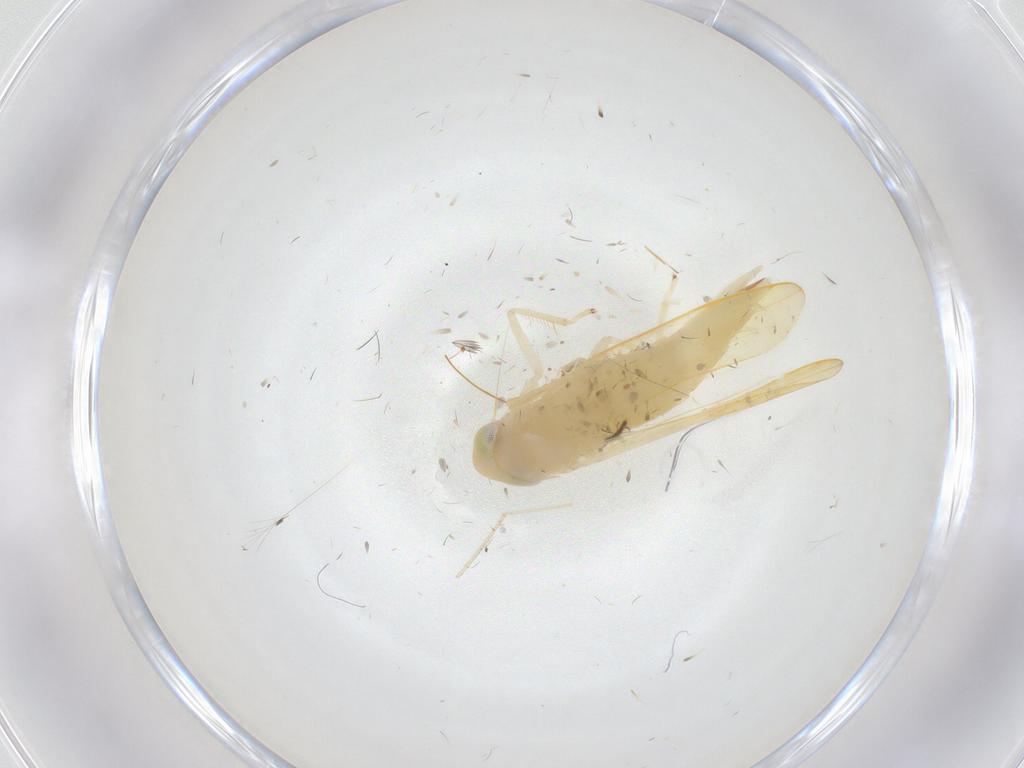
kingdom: Animalia
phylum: Arthropoda
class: Insecta
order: Hemiptera
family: Cicadellidae
